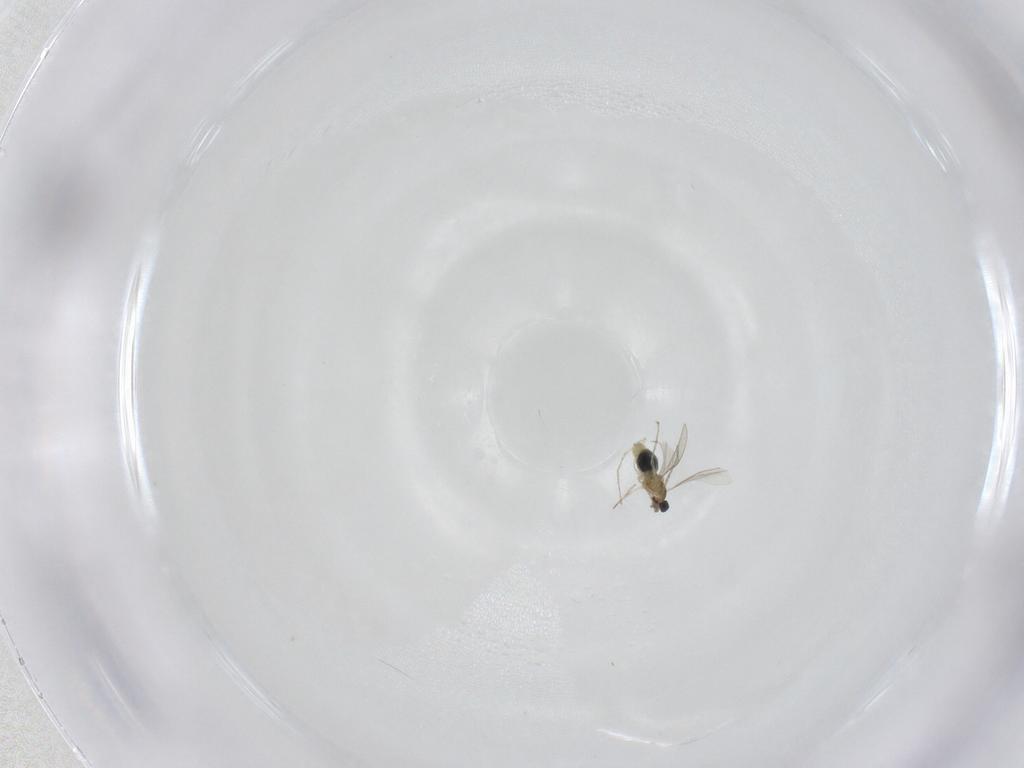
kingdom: Animalia
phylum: Arthropoda
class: Insecta
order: Diptera
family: Cecidomyiidae
